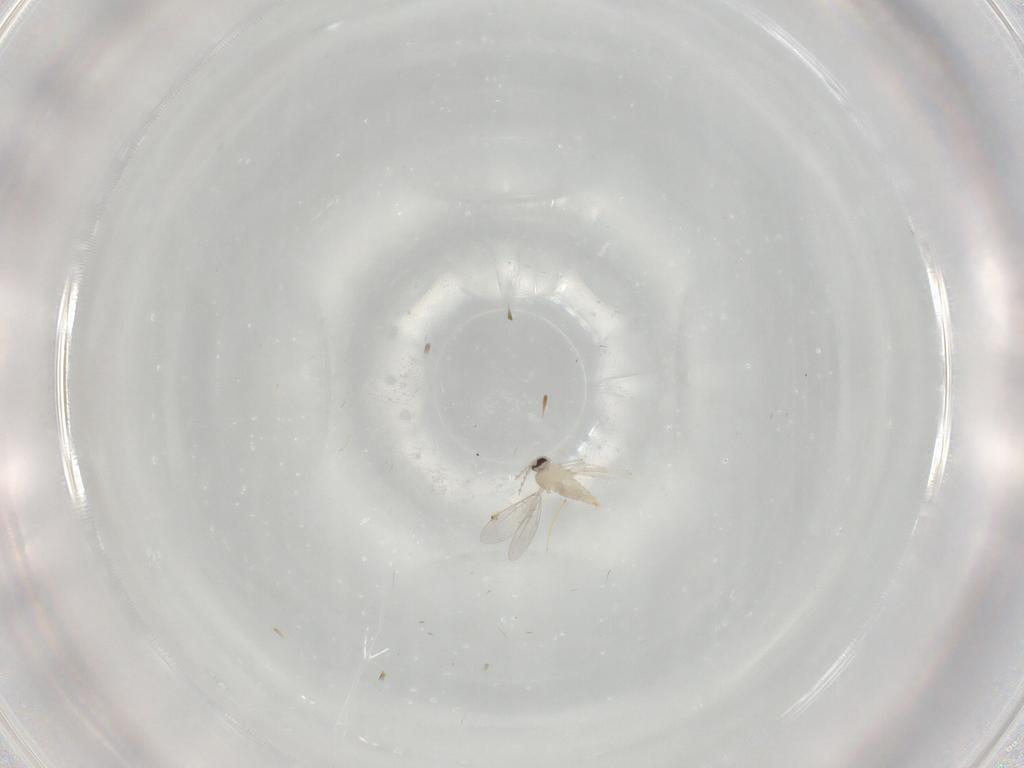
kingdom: Animalia
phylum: Arthropoda
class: Insecta
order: Diptera
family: Cecidomyiidae
